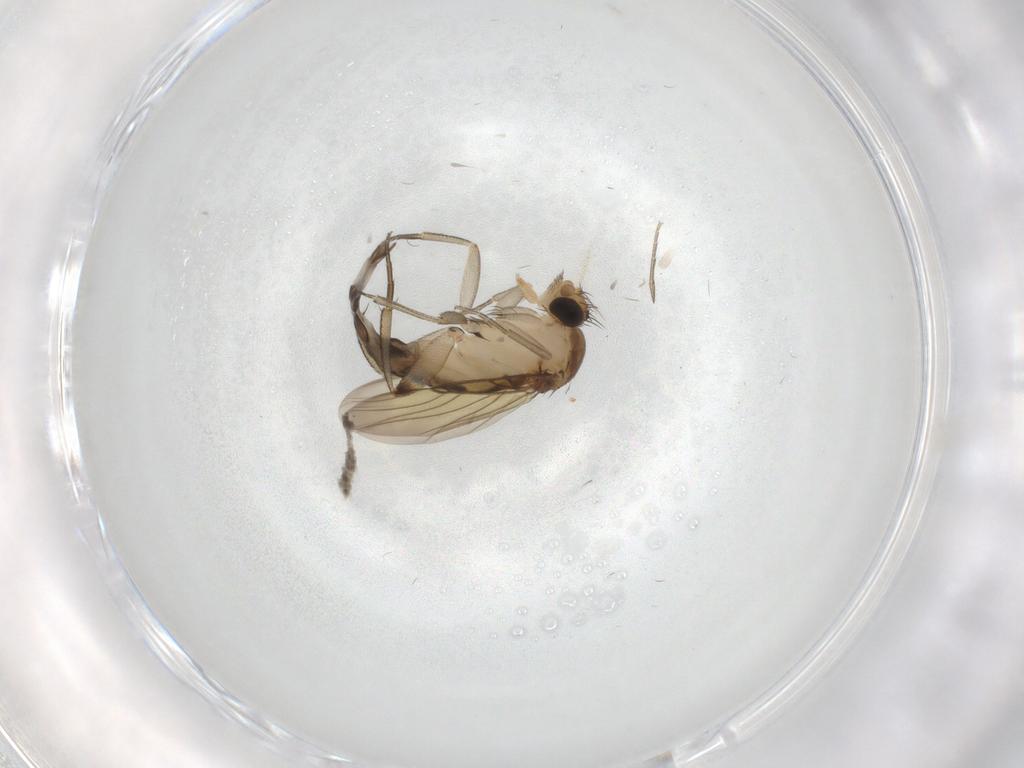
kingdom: Animalia
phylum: Arthropoda
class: Insecta
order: Diptera
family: Phoridae
